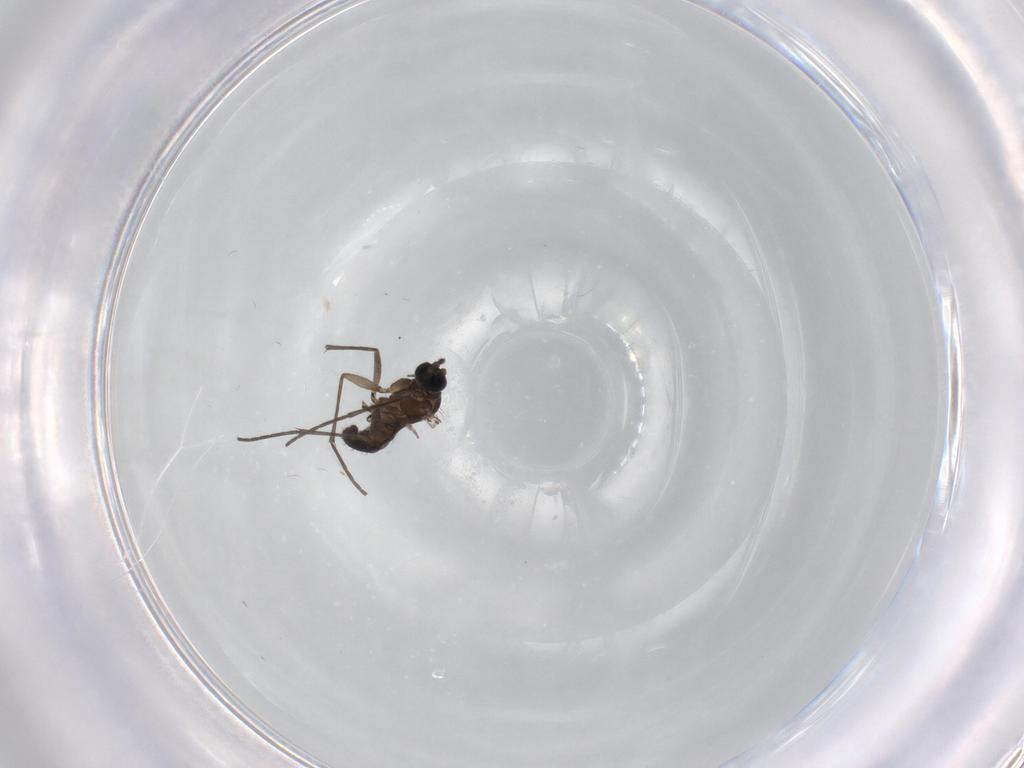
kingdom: Animalia
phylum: Arthropoda
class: Insecta
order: Diptera
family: Sciaridae
